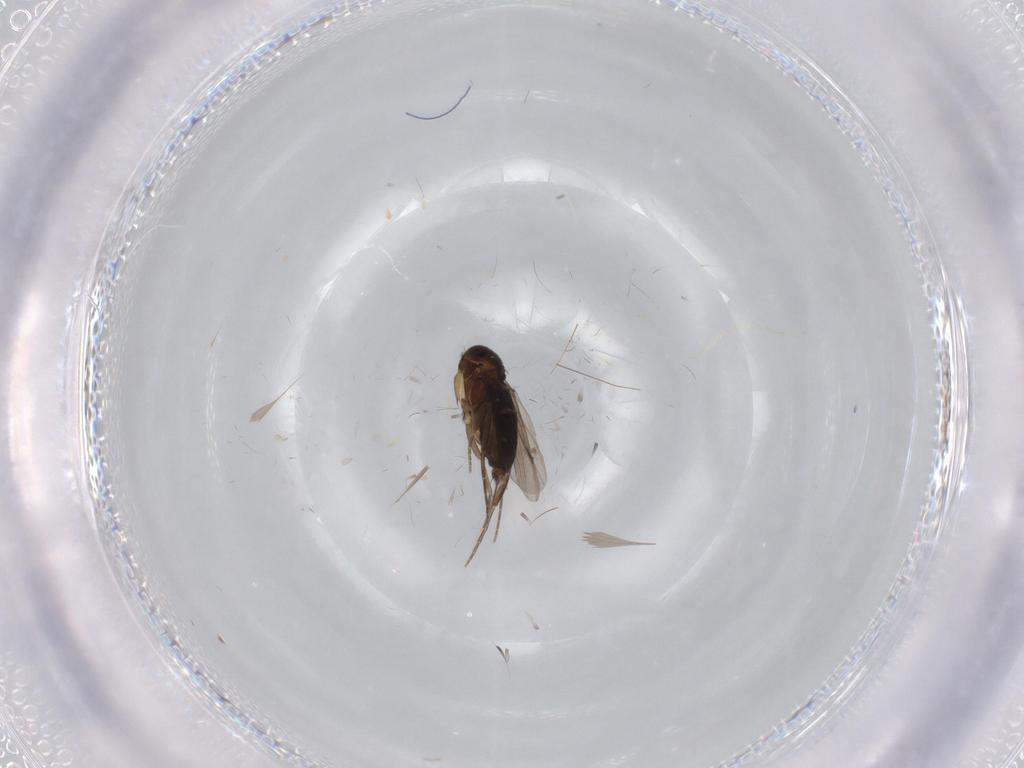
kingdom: Animalia
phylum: Arthropoda
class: Insecta
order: Diptera
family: Phoridae
